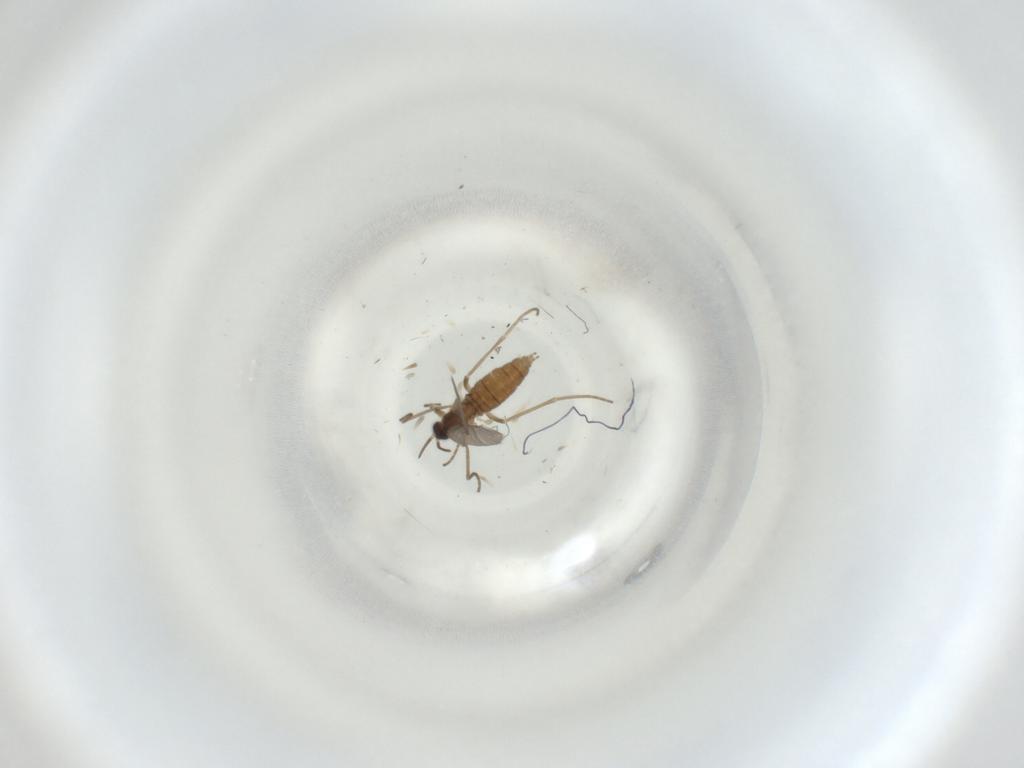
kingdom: Animalia
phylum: Arthropoda
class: Insecta
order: Diptera
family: Cecidomyiidae
